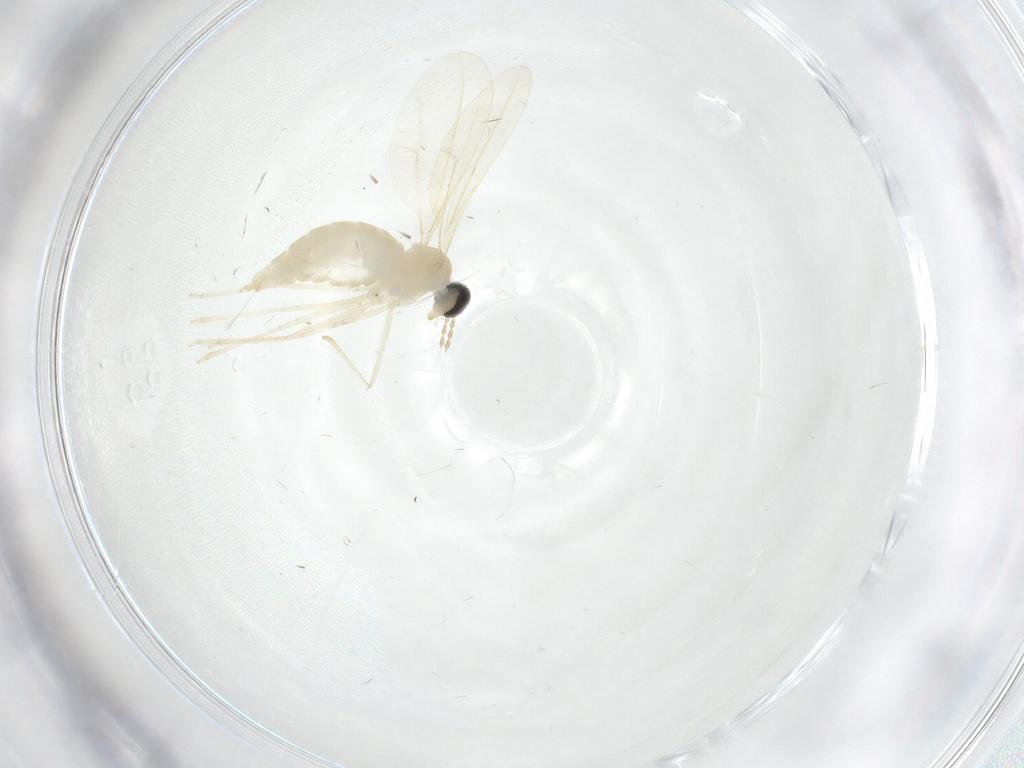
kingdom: Animalia
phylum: Arthropoda
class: Insecta
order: Diptera
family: Cecidomyiidae
